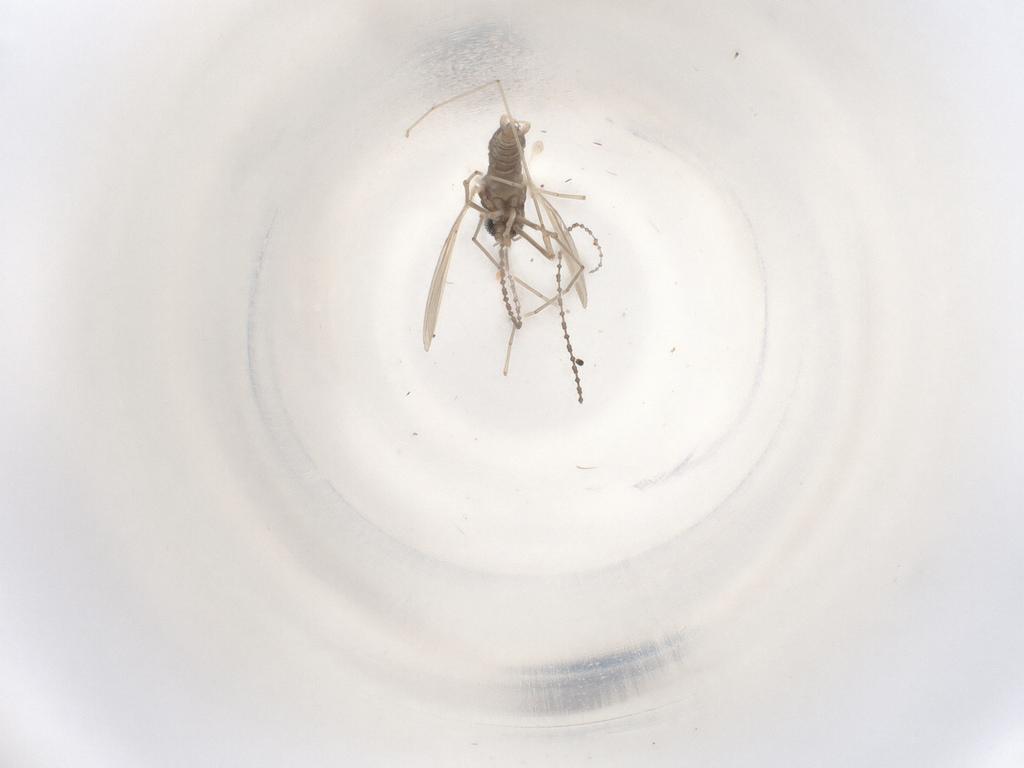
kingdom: Animalia
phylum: Arthropoda
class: Insecta
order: Diptera
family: Cecidomyiidae
